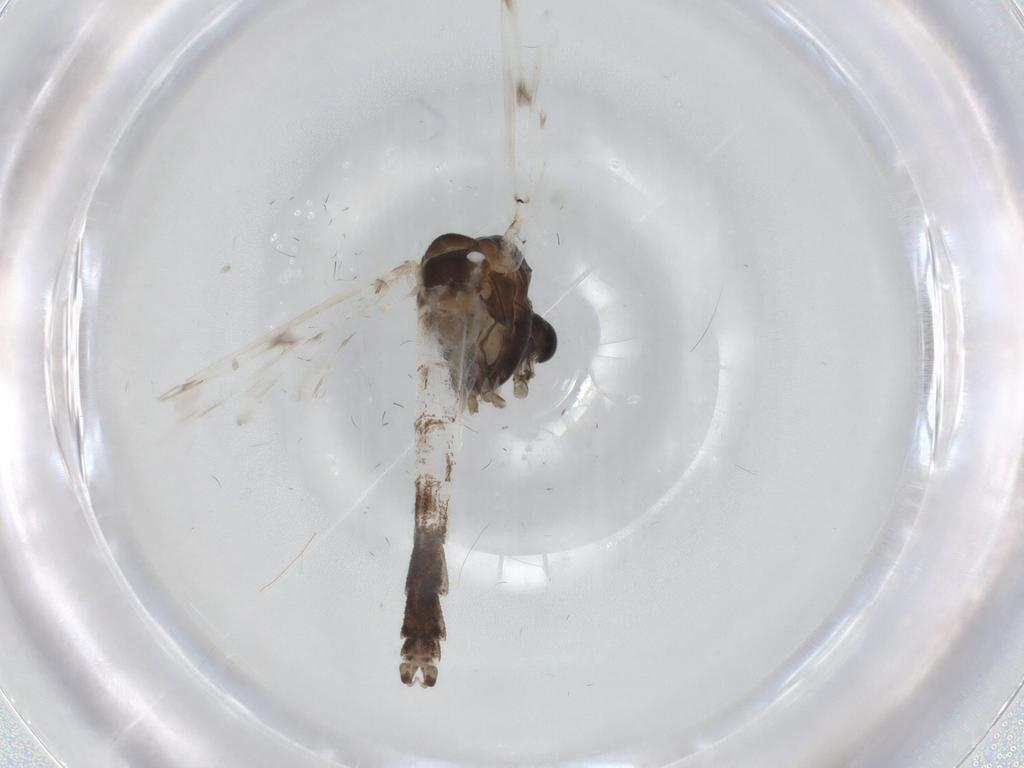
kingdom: Animalia
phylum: Arthropoda
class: Insecta
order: Diptera
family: Chironomidae
